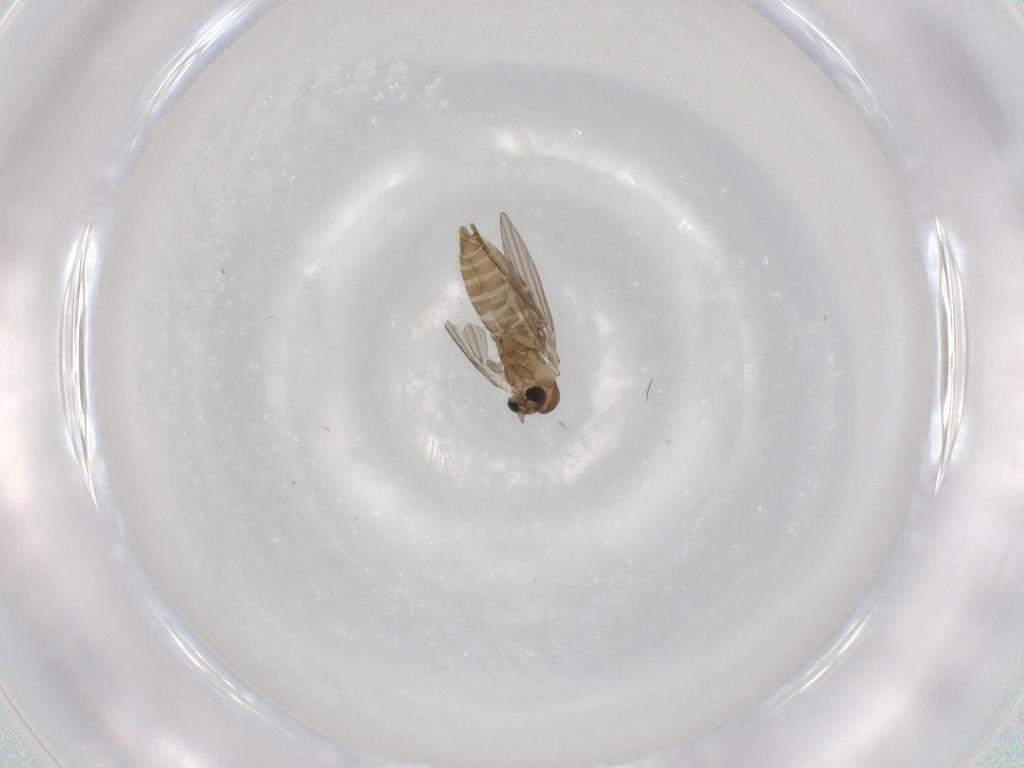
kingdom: Animalia
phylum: Arthropoda
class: Insecta
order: Diptera
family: Cecidomyiidae
